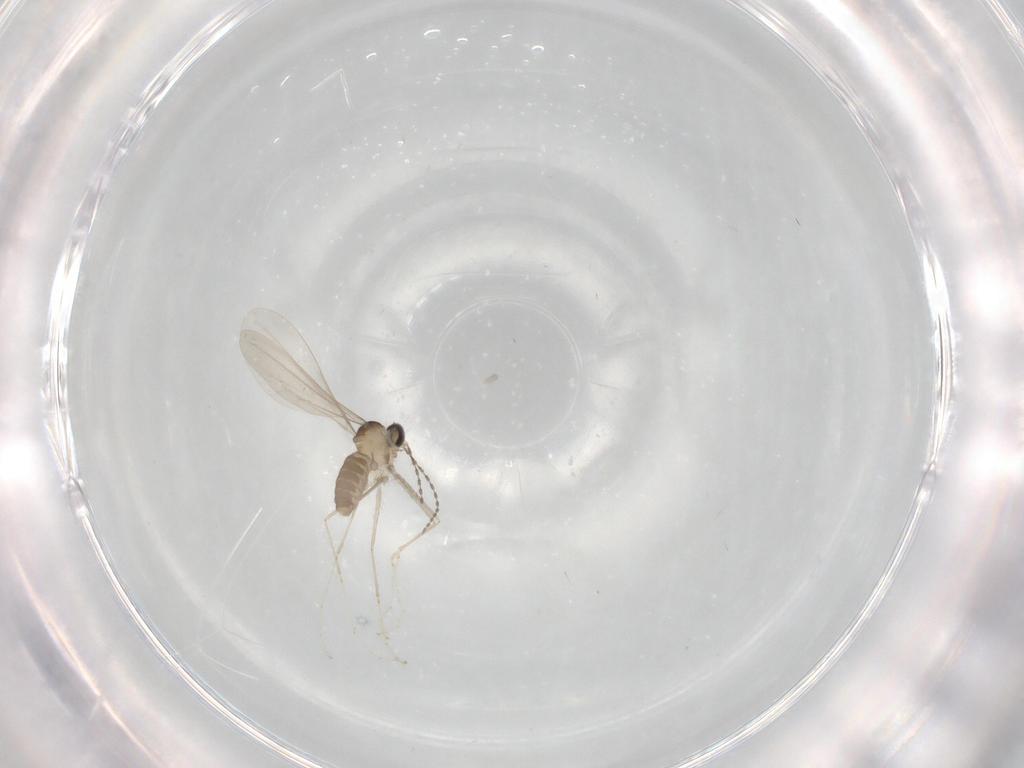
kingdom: Animalia
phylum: Arthropoda
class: Insecta
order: Diptera
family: Cecidomyiidae
